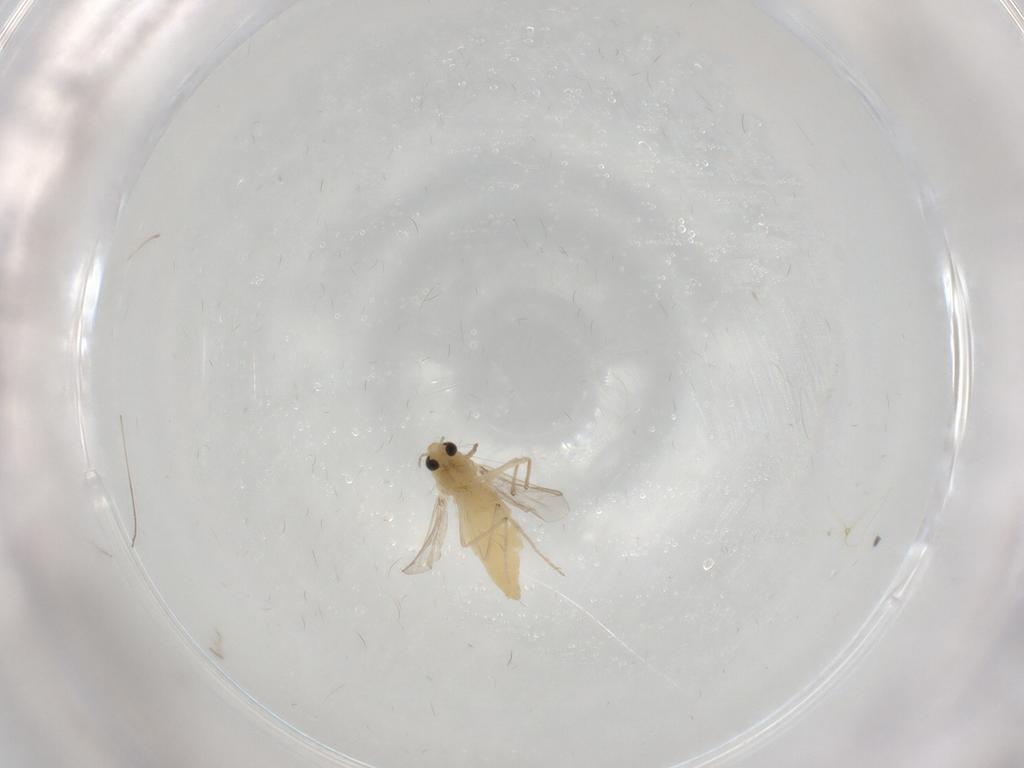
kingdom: Animalia
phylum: Arthropoda
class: Insecta
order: Diptera
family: Chironomidae
